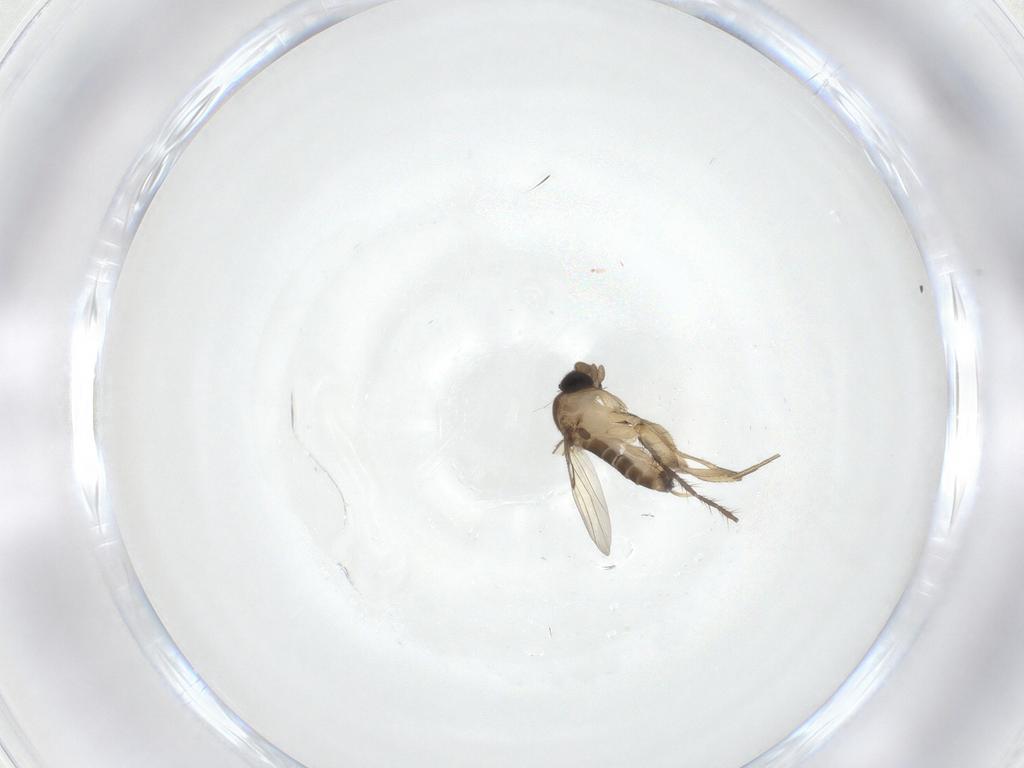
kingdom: Animalia
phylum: Arthropoda
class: Insecta
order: Diptera
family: Phoridae
